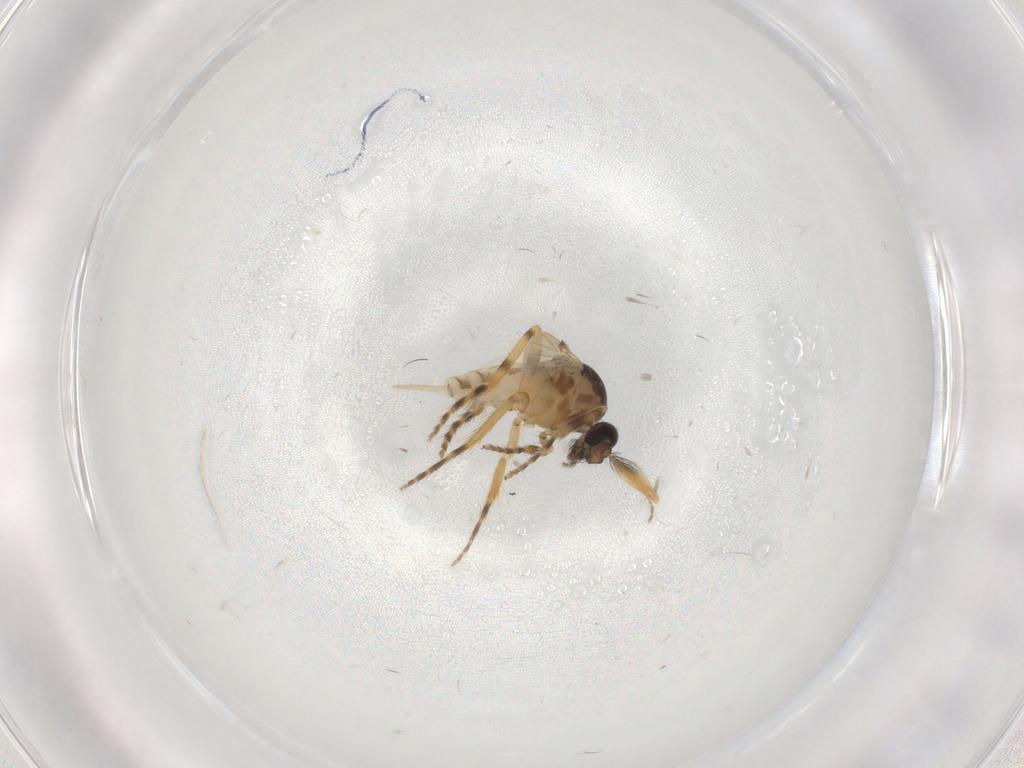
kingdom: Animalia
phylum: Arthropoda
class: Insecta
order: Diptera
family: Chironomidae
